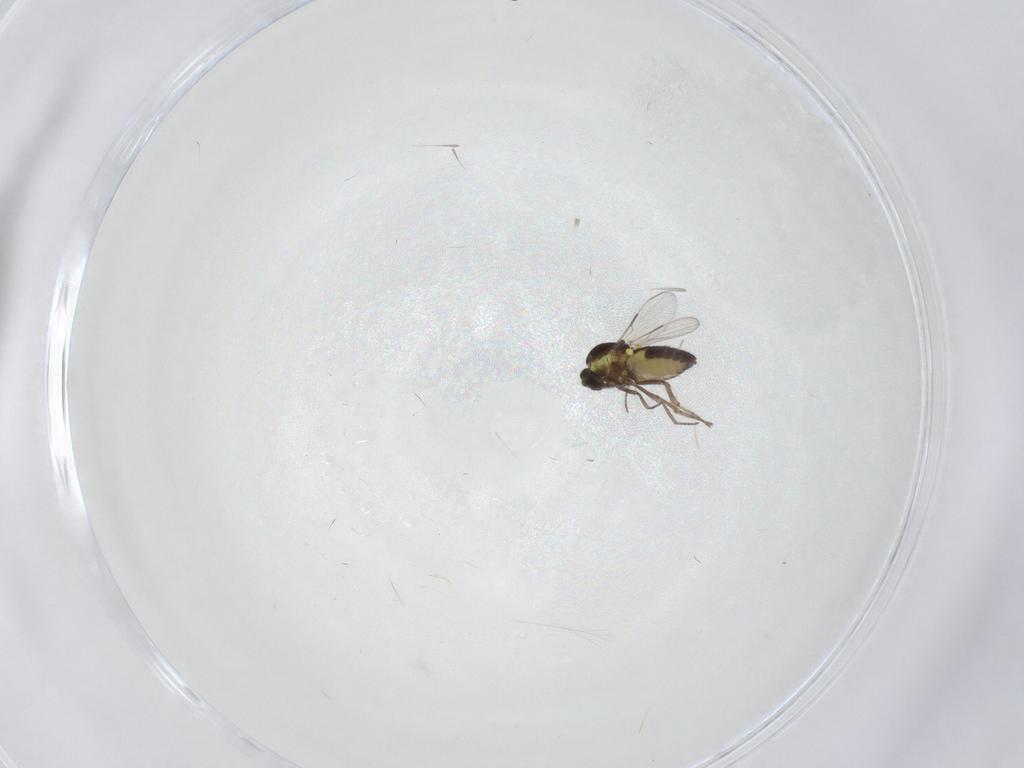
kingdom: Animalia
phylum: Arthropoda
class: Insecta
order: Diptera
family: Ceratopogonidae
